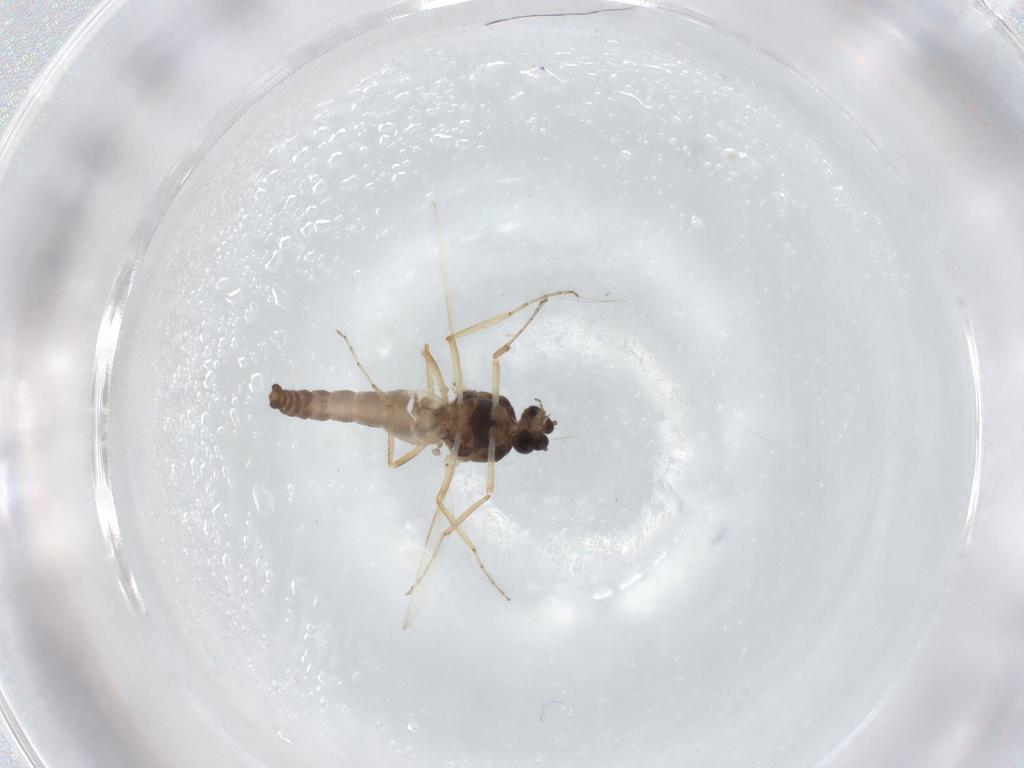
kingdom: Animalia
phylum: Arthropoda
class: Insecta
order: Diptera
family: Ceratopogonidae
